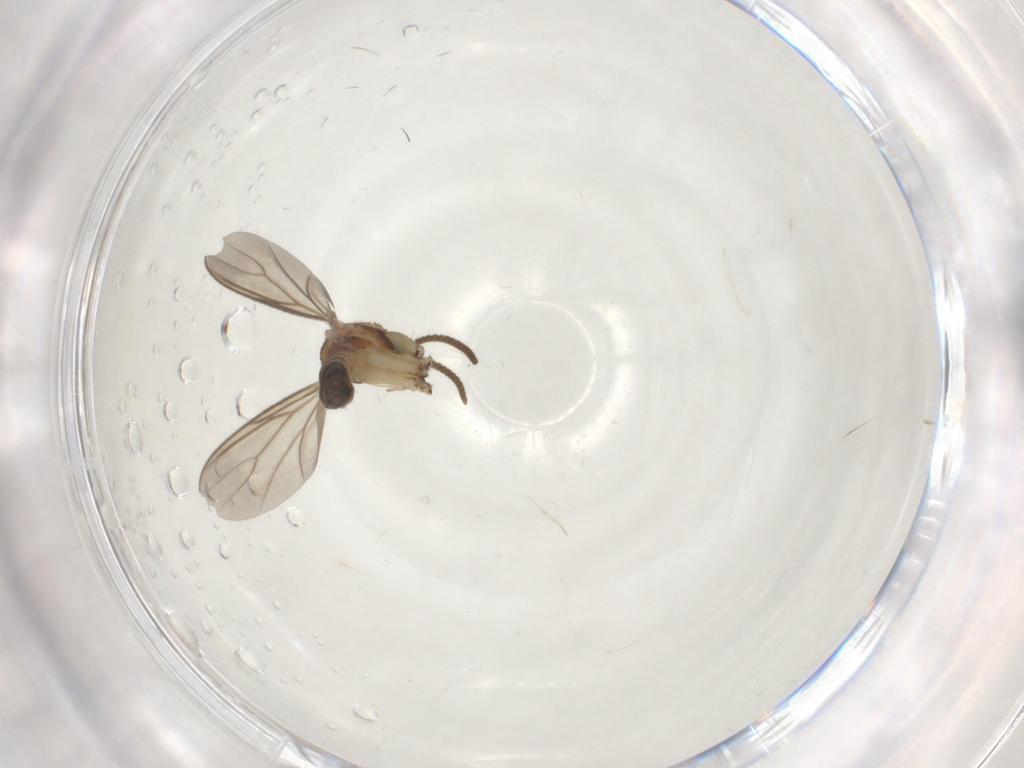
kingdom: Animalia
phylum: Arthropoda
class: Insecta
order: Diptera
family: Mycetophilidae
